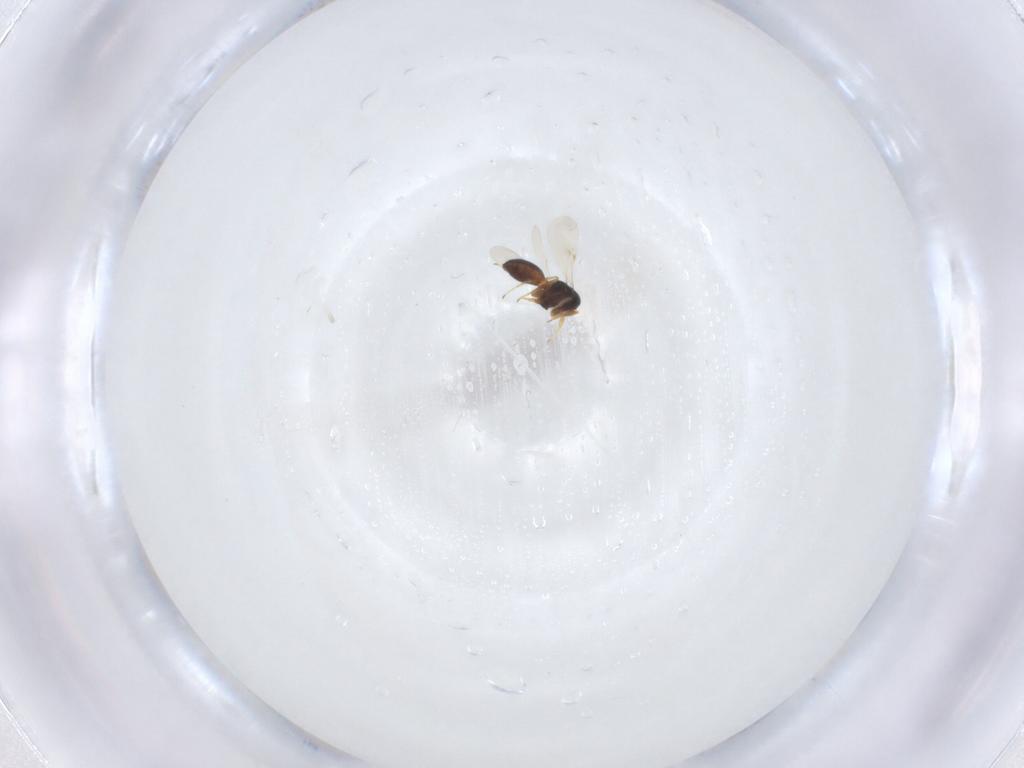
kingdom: Animalia
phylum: Arthropoda
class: Insecta
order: Hymenoptera
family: Scelionidae
